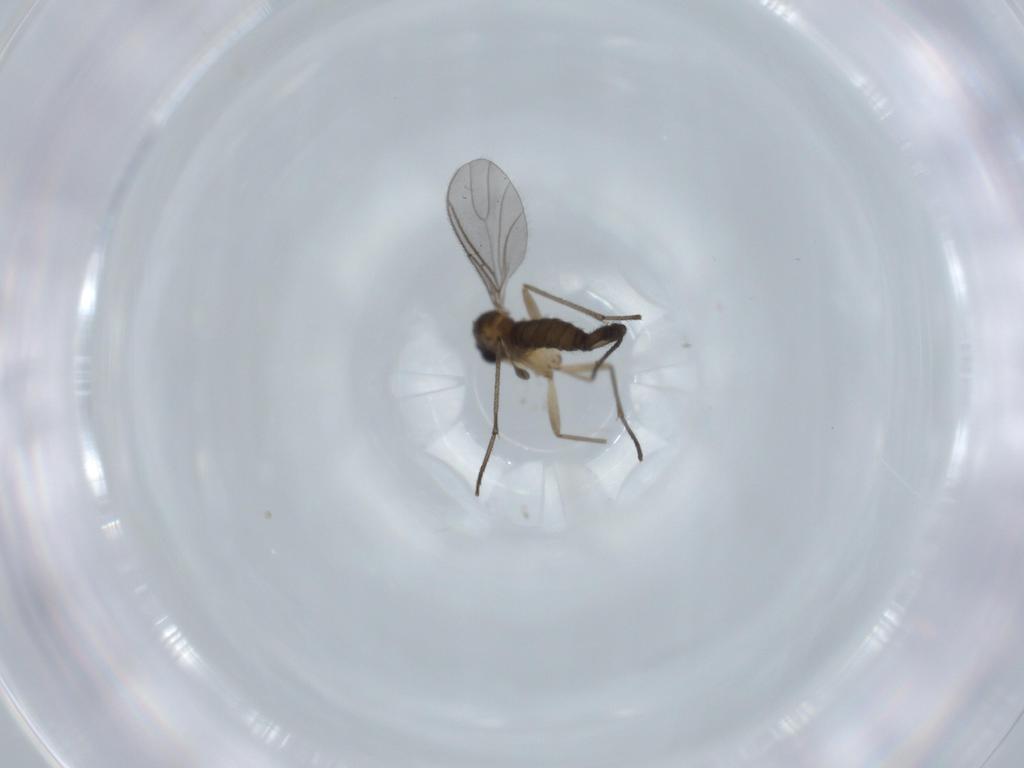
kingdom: Animalia
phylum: Arthropoda
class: Insecta
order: Diptera
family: Sciaridae
